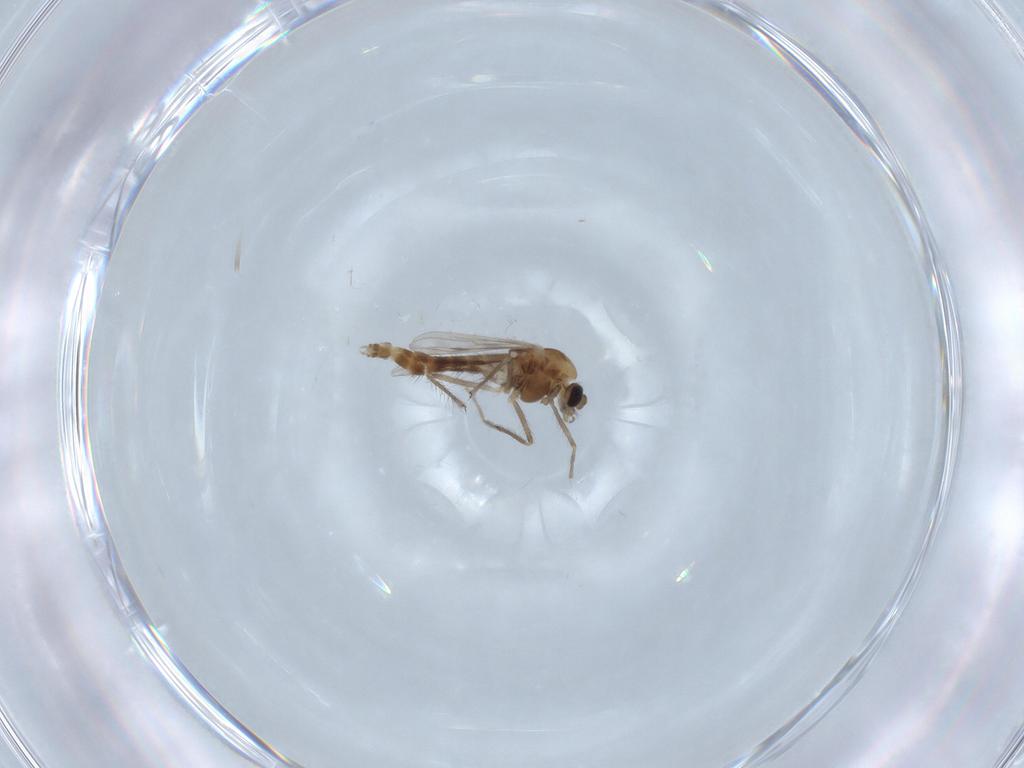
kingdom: Animalia
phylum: Arthropoda
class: Insecta
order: Diptera
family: Chironomidae
